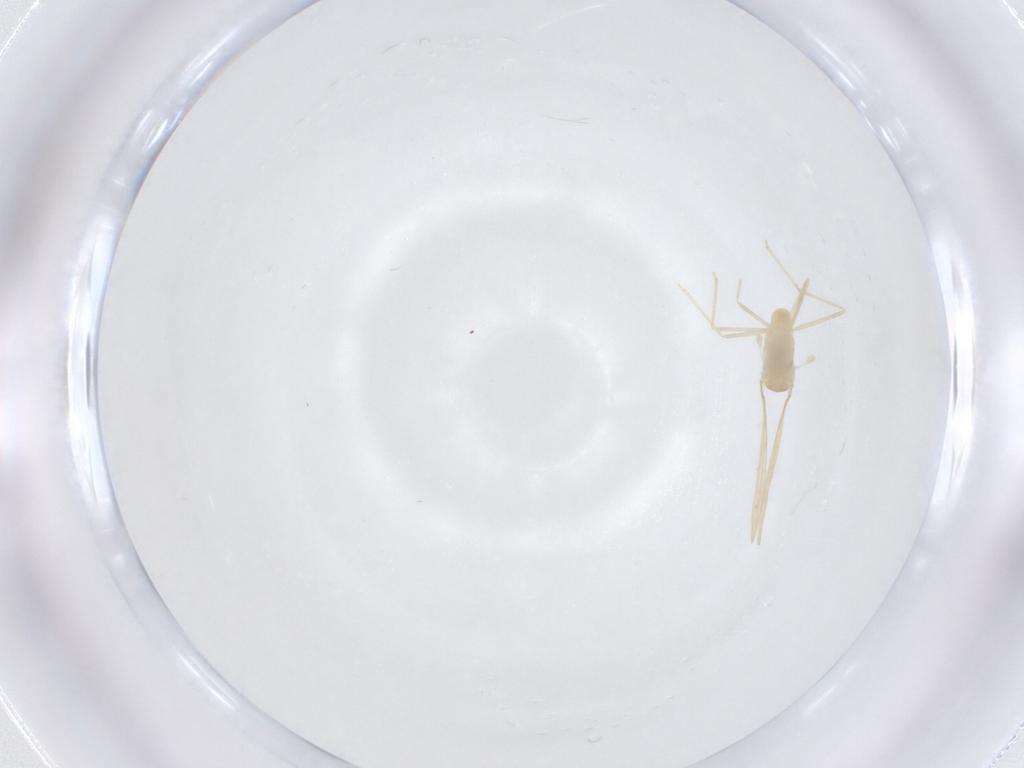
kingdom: Animalia
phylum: Arthropoda
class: Insecta
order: Diptera
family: Cecidomyiidae
